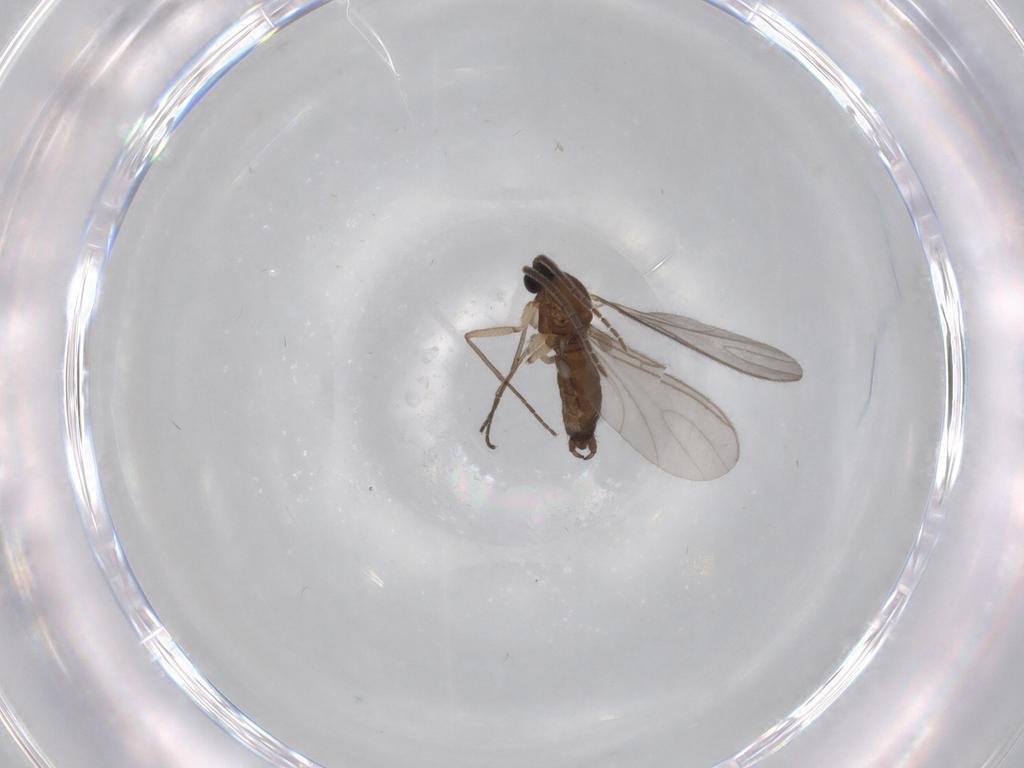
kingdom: Animalia
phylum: Arthropoda
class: Insecta
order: Diptera
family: Sciaridae
